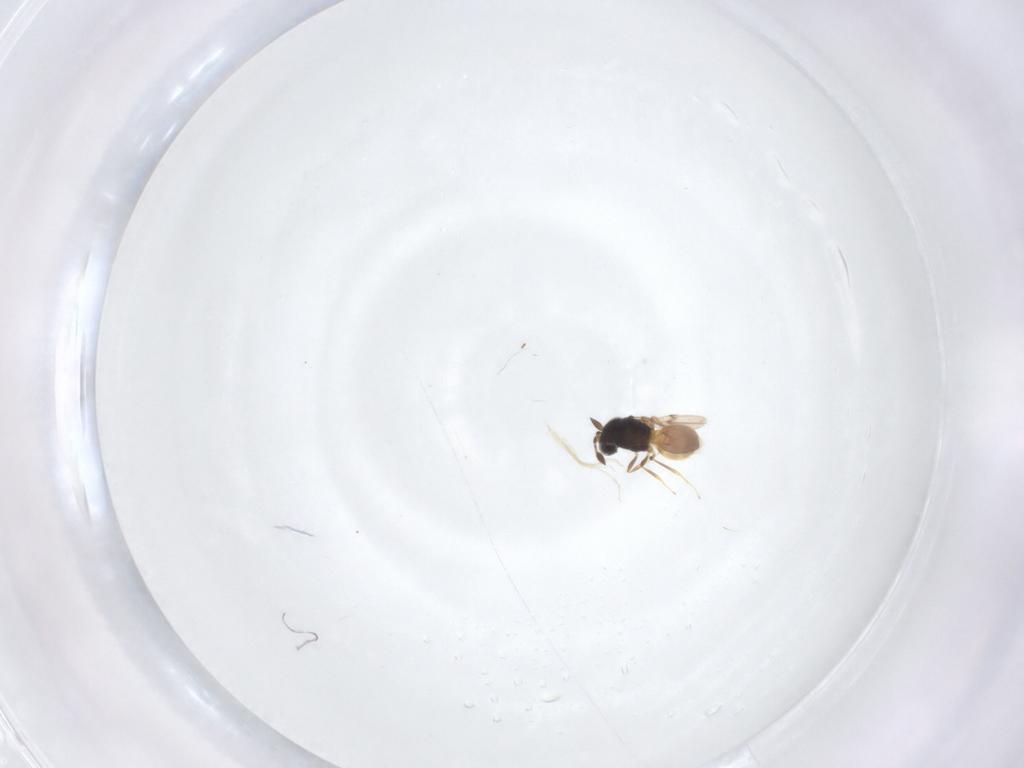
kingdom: Animalia
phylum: Arthropoda
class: Insecta
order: Hymenoptera
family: Scelionidae
